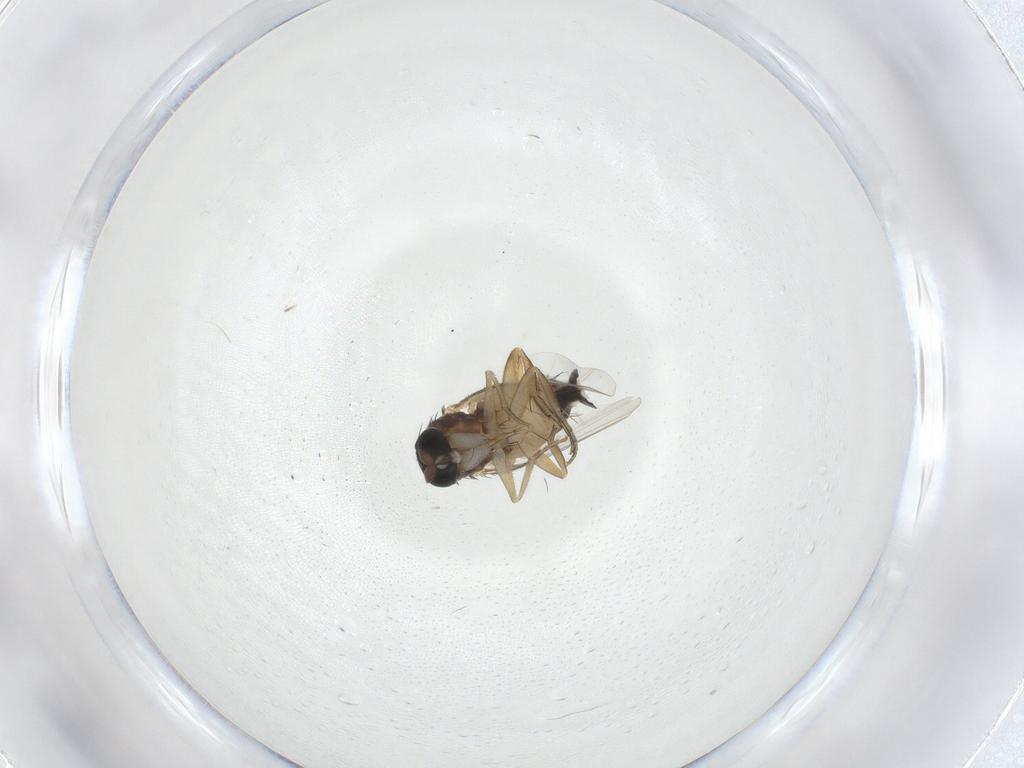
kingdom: Animalia
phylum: Arthropoda
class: Insecta
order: Diptera
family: Phoridae
